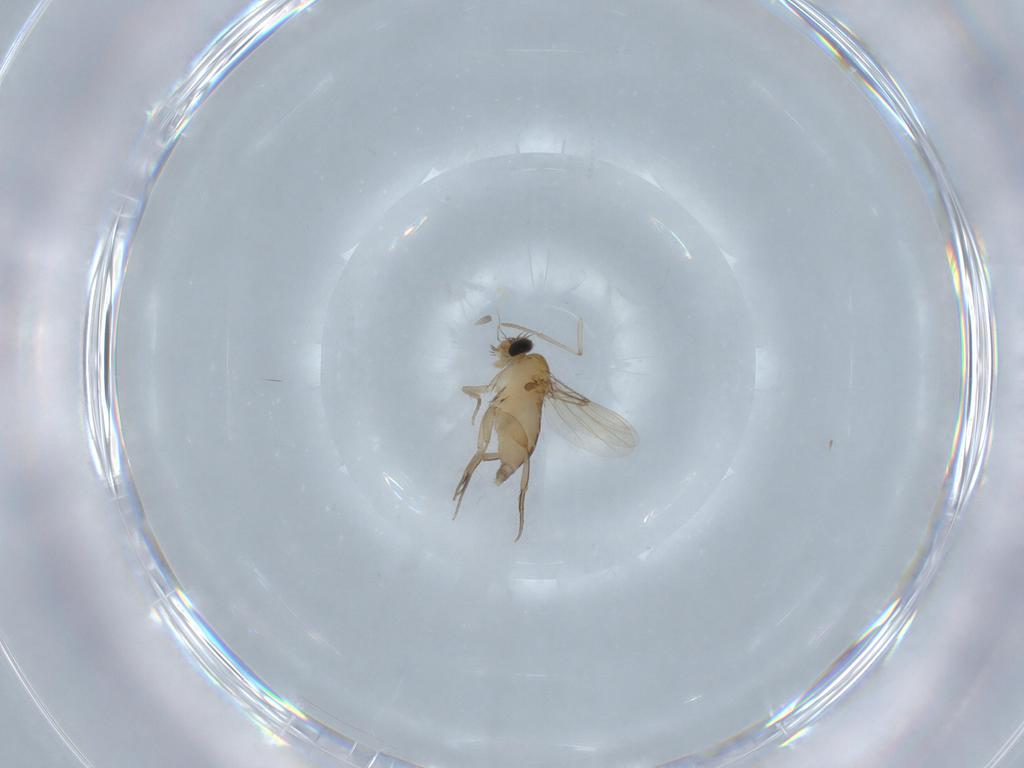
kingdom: Animalia
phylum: Arthropoda
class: Insecta
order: Diptera
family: Phoridae
